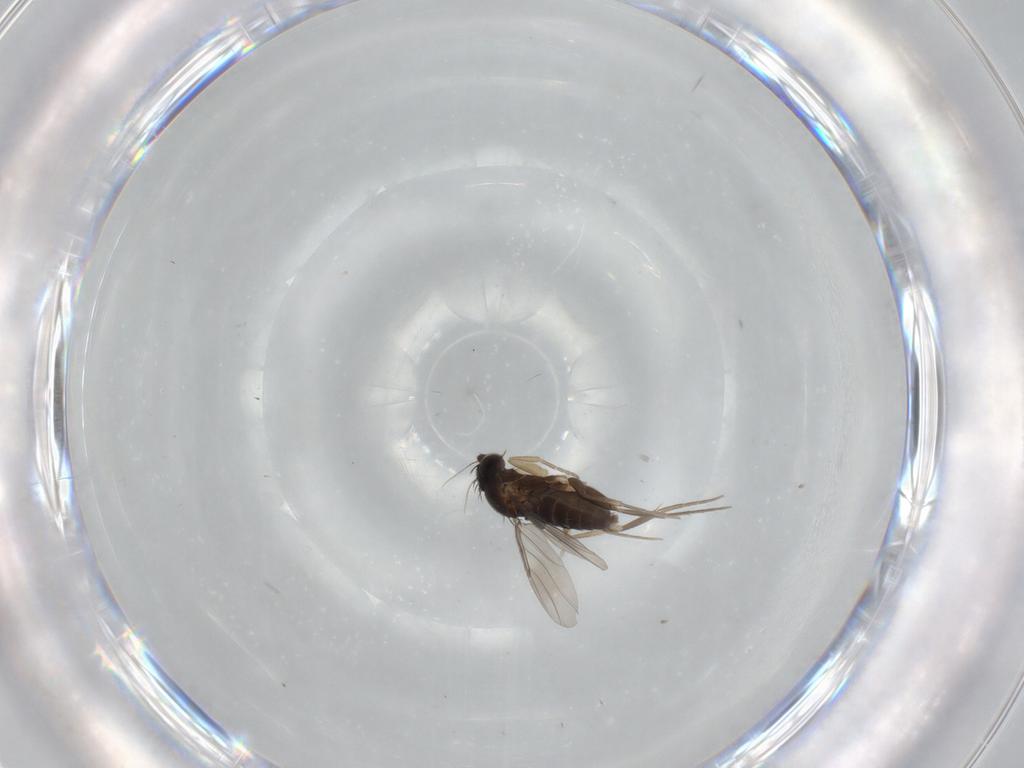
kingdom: Animalia
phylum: Arthropoda
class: Insecta
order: Diptera
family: Phoridae
